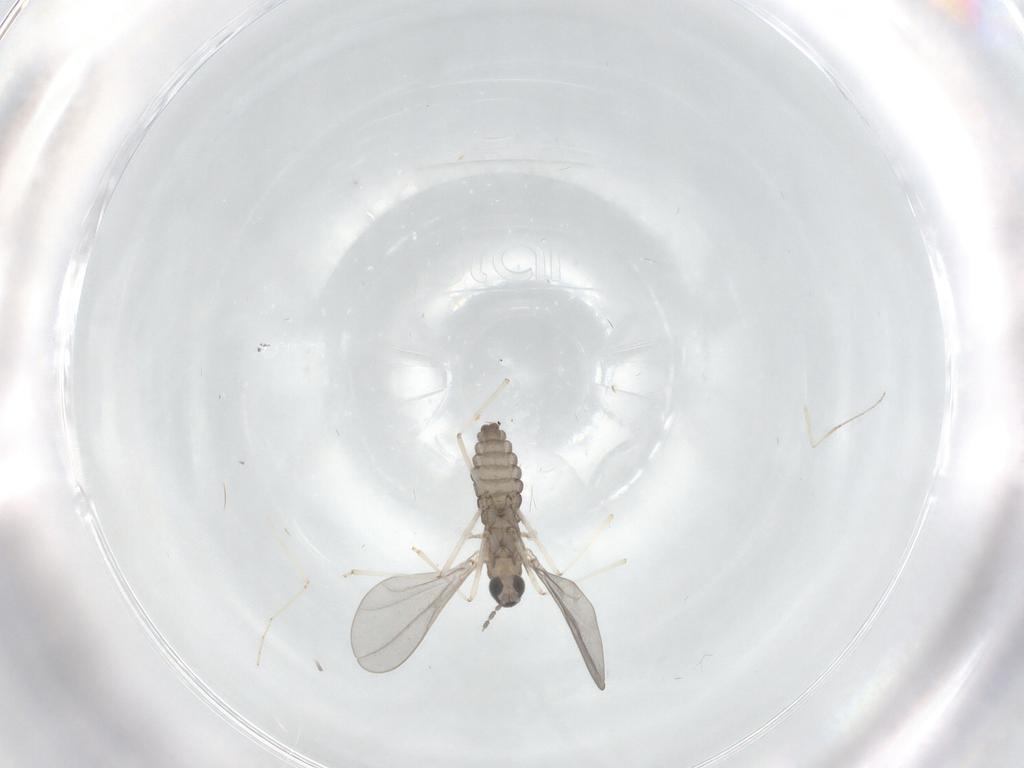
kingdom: Animalia
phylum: Arthropoda
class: Insecta
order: Diptera
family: Cecidomyiidae
